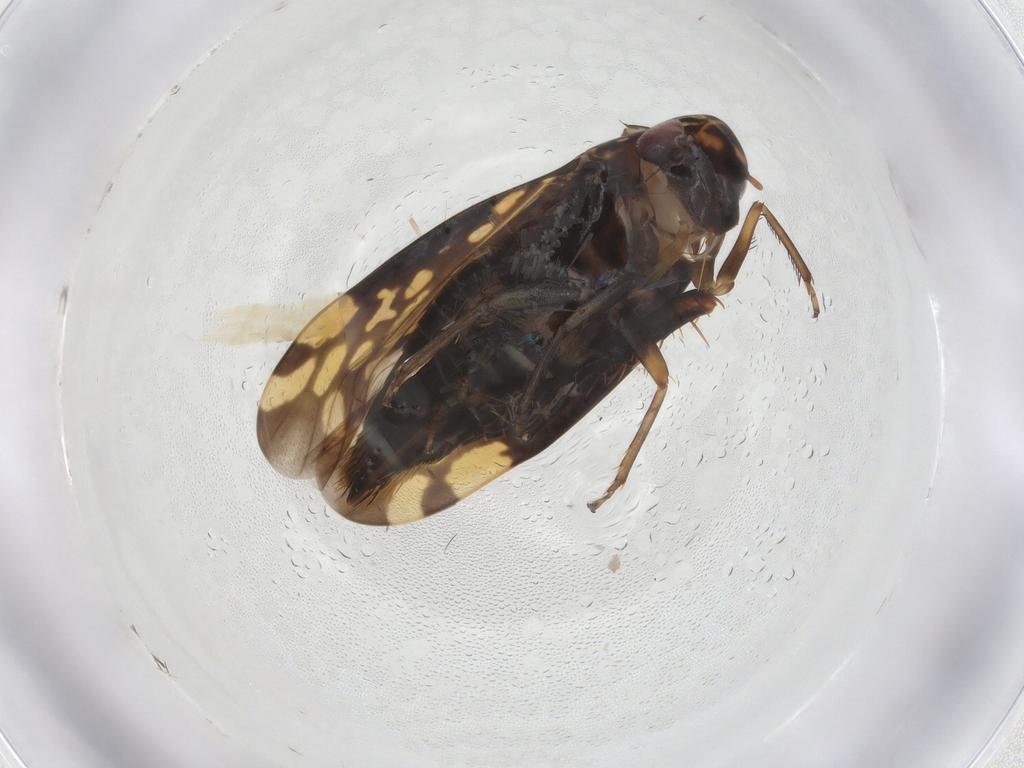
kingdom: Animalia
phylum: Arthropoda
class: Insecta
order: Hemiptera
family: Cicadellidae
